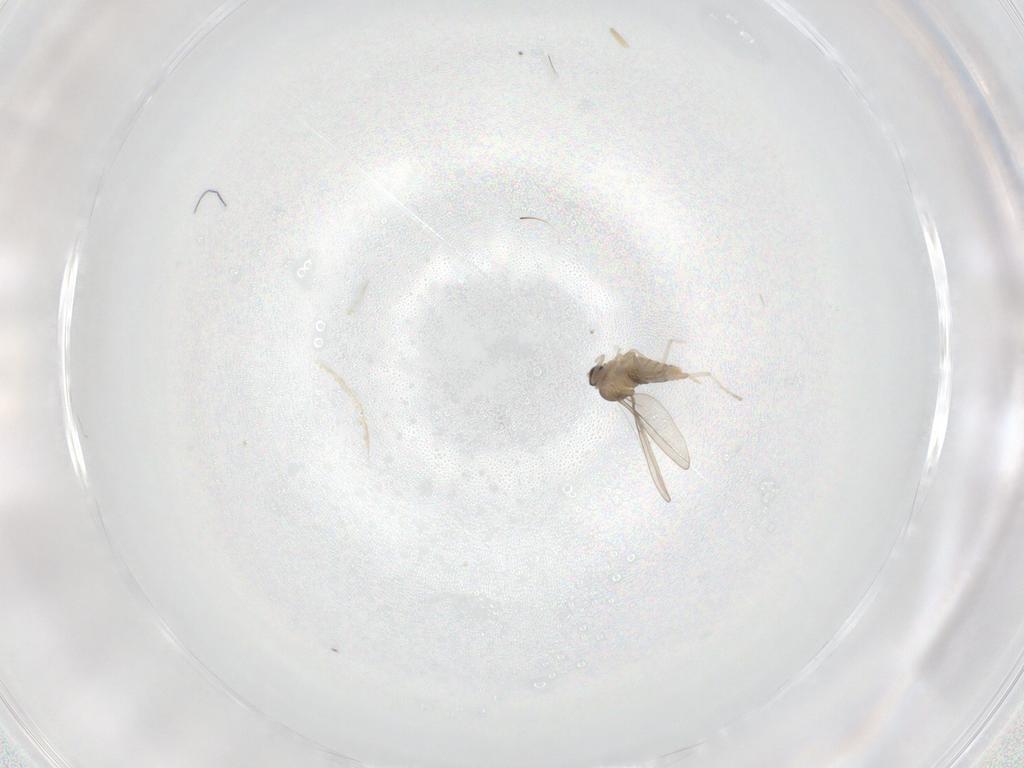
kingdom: Animalia
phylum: Arthropoda
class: Insecta
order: Diptera
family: Cecidomyiidae
